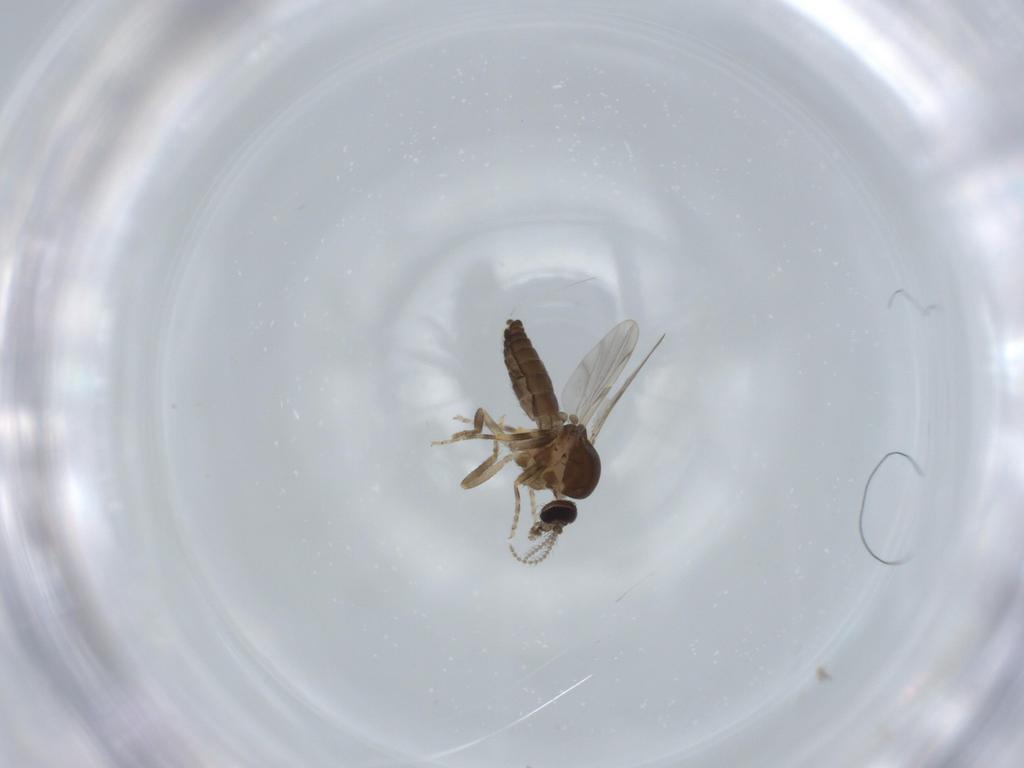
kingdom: Animalia
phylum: Arthropoda
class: Insecta
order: Diptera
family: Ceratopogonidae
